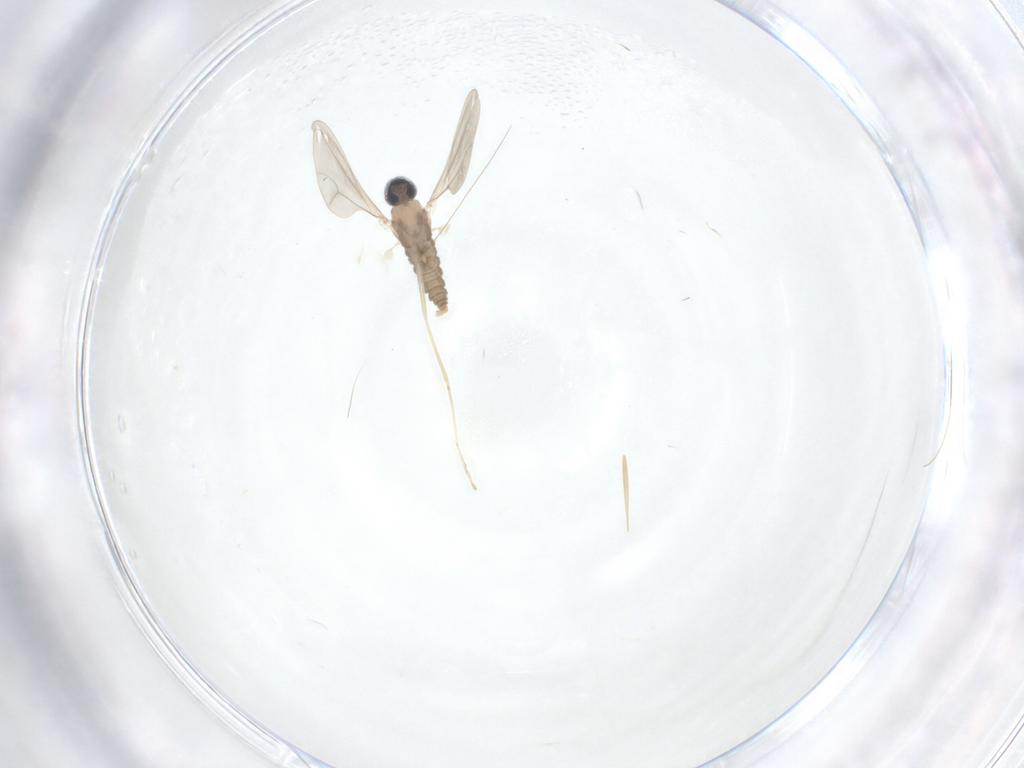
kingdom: Animalia
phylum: Arthropoda
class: Insecta
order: Diptera
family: Cecidomyiidae
